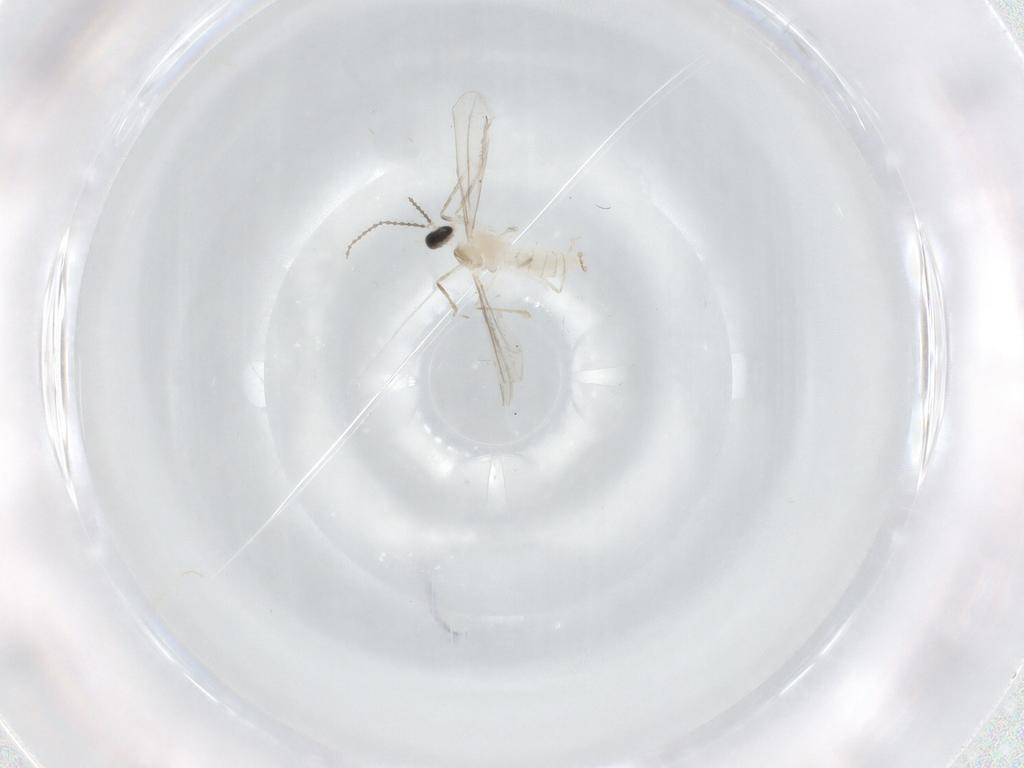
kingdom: Animalia
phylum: Arthropoda
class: Insecta
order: Diptera
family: Cecidomyiidae
